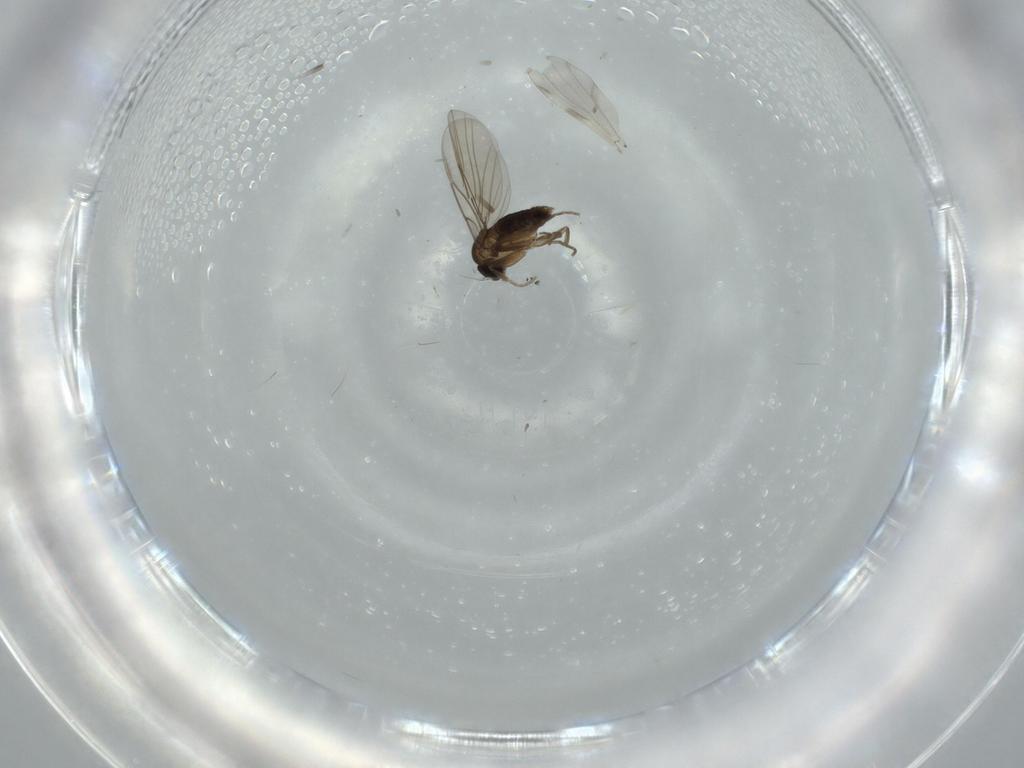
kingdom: Animalia
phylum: Arthropoda
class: Insecta
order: Diptera
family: Phoridae
